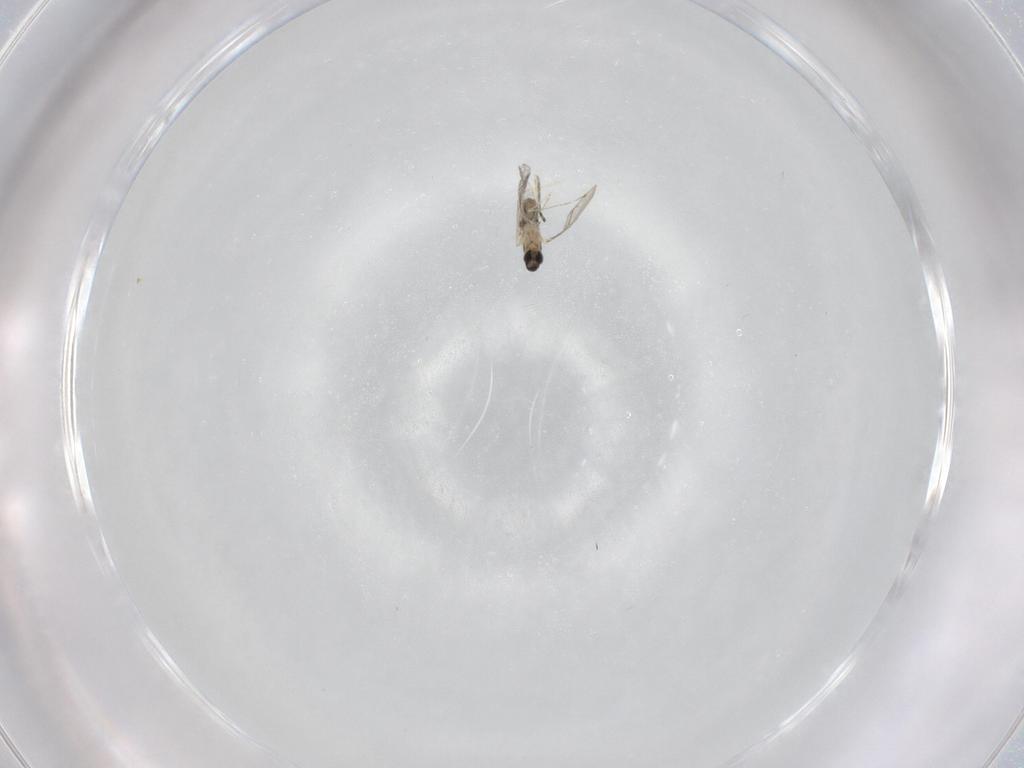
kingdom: Animalia
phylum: Arthropoda
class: Insecta
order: Diptera
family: Cecidomyiidae
